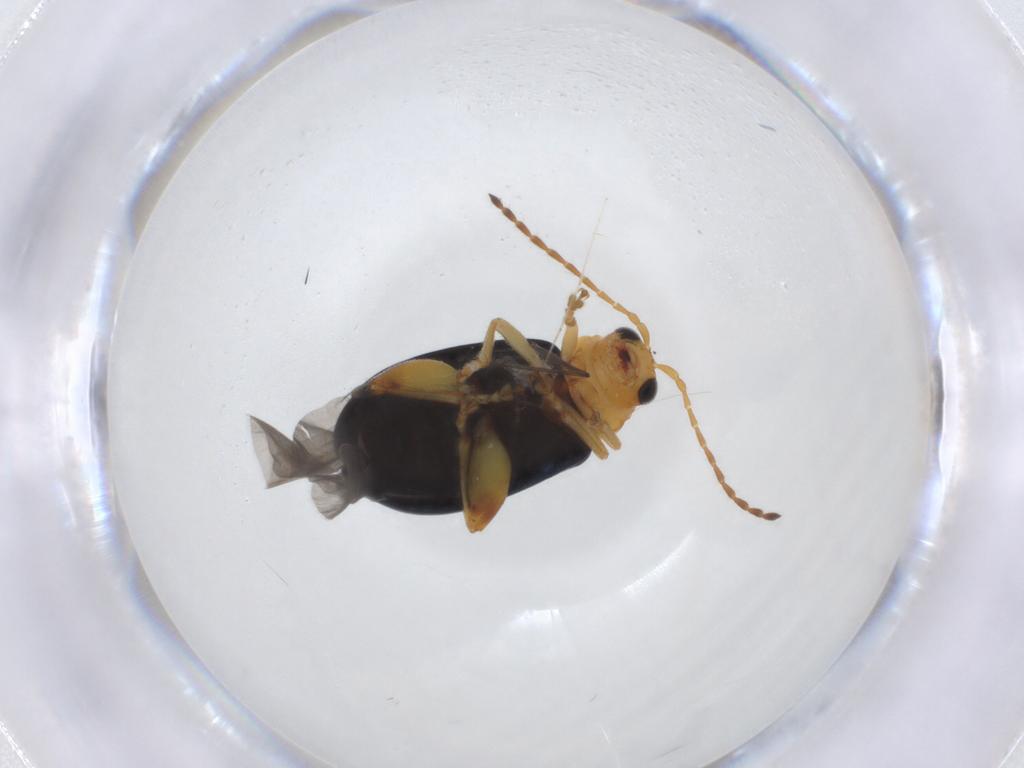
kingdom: Animalia
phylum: Arthropoda
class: Insecta
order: Coleoptera
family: Chrysomelidae
